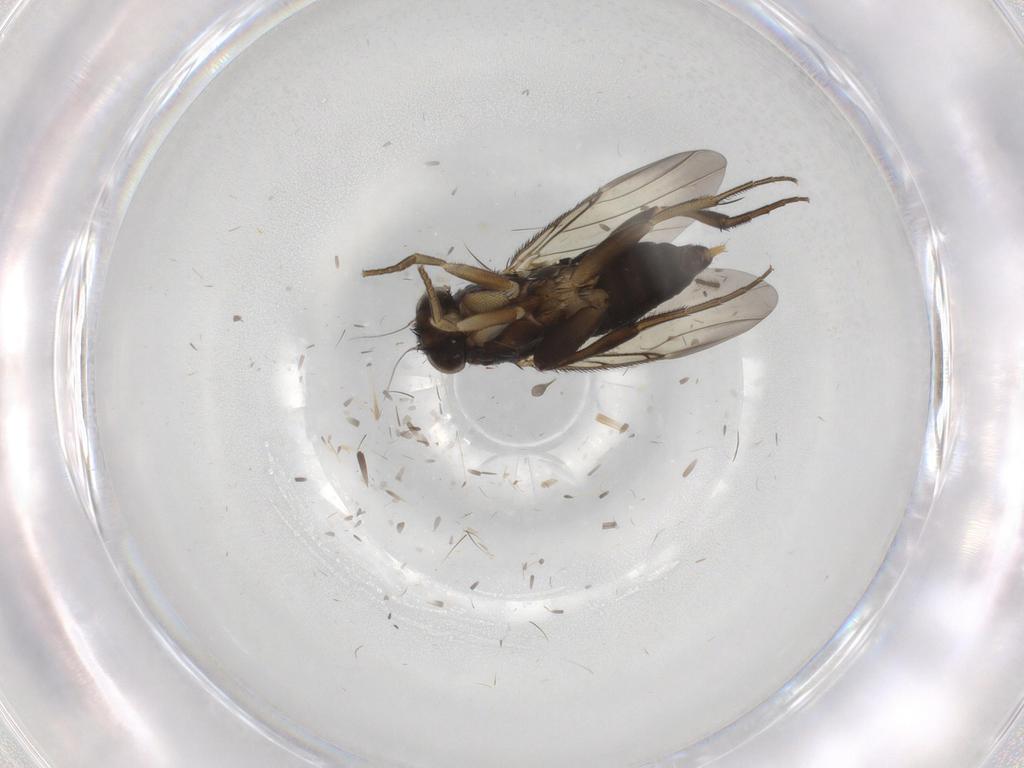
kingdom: Animalia
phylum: Arthropoda
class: Insecta
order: Diptera
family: Phoridae
